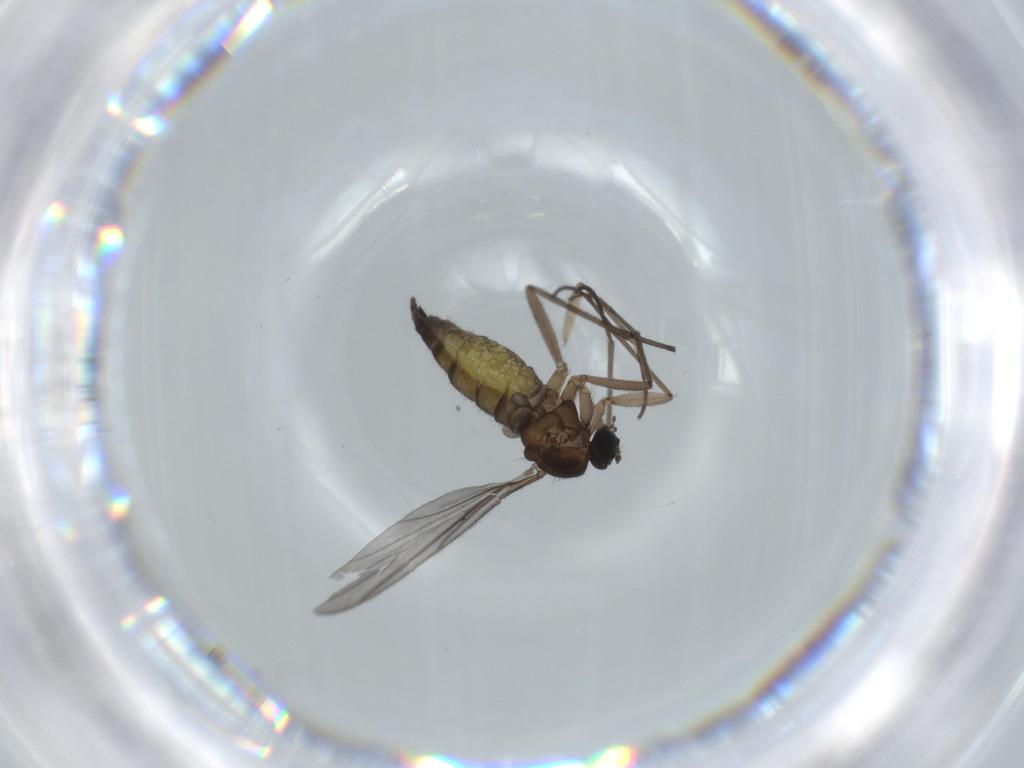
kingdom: Animalia
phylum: Arthropoda
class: Insecta
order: Diptera
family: Sciaridae
